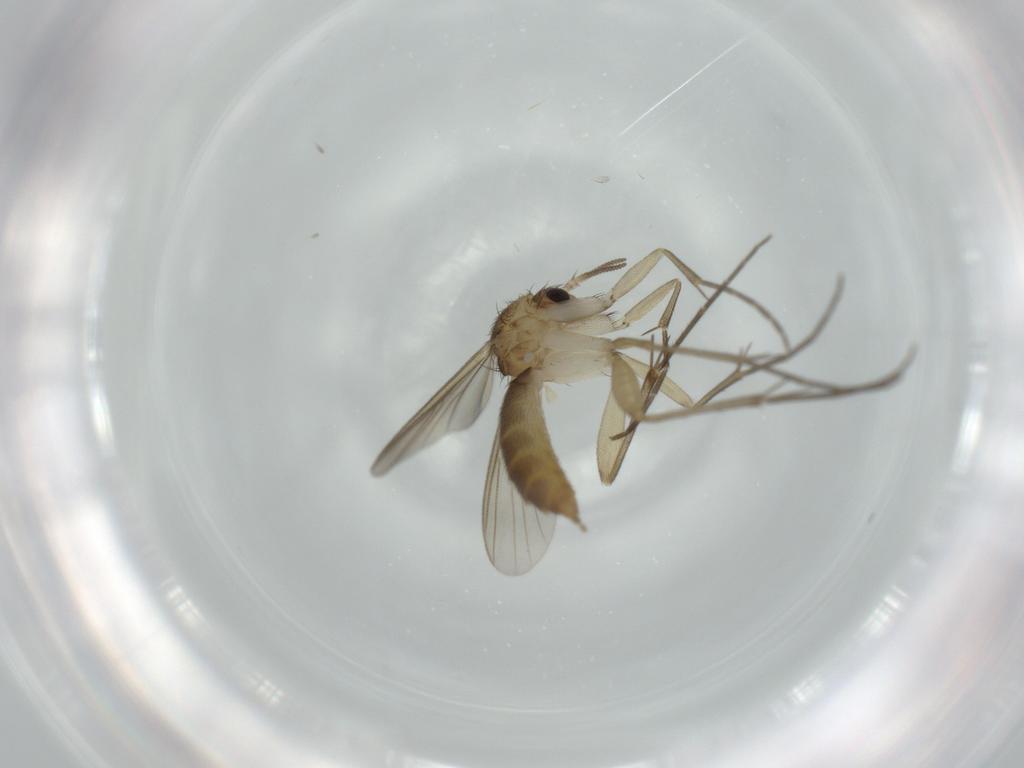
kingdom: Animalia
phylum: Arthropoda
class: Insecta
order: Diptera
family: Mycetophilidae
